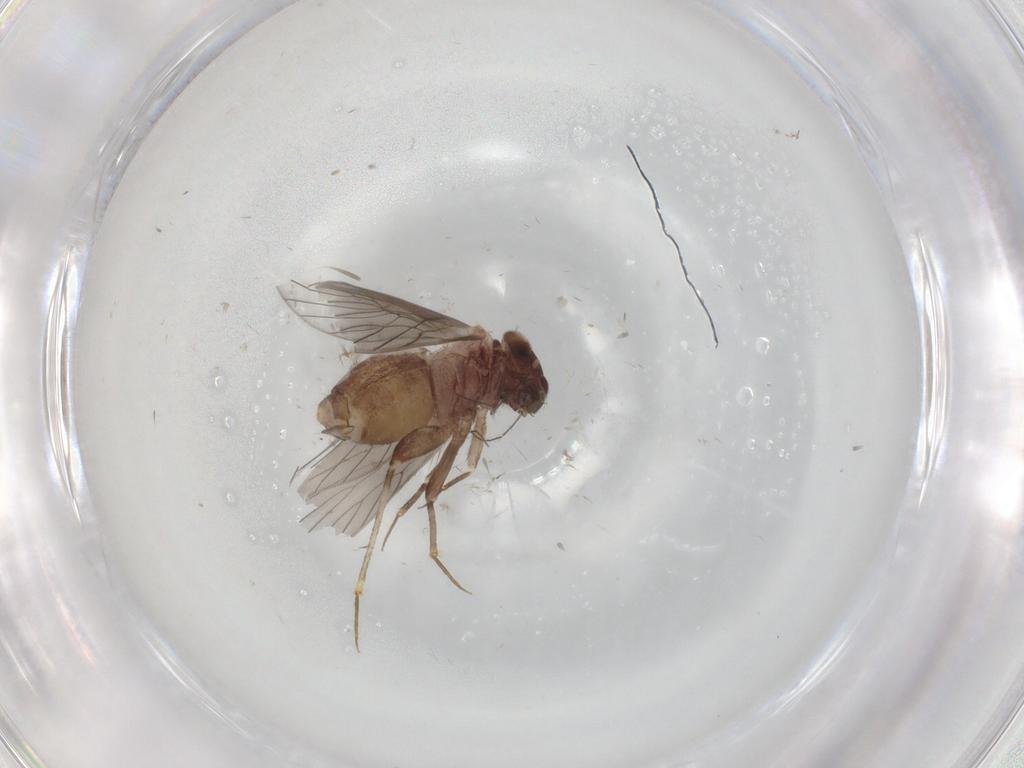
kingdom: Animalia
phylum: Arthropoda
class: Insecta
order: Psocodea
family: Lepidopsocidae
